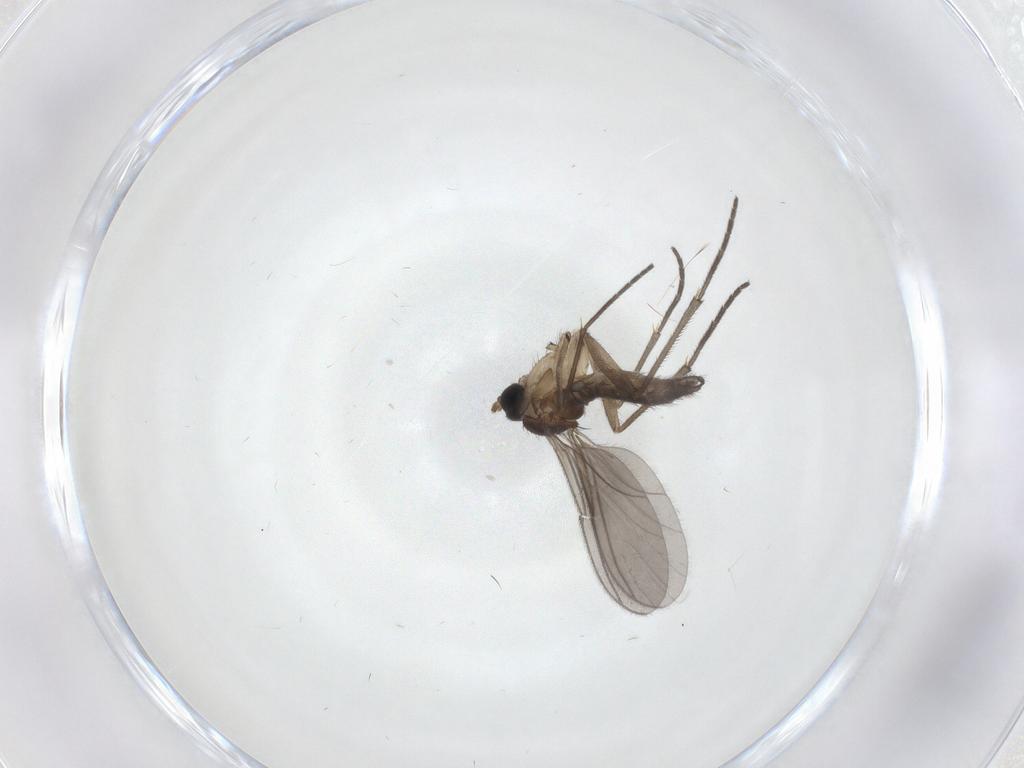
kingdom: Animalia
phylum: Arthropoda
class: Insecta
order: Diptera
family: Sciaridae
